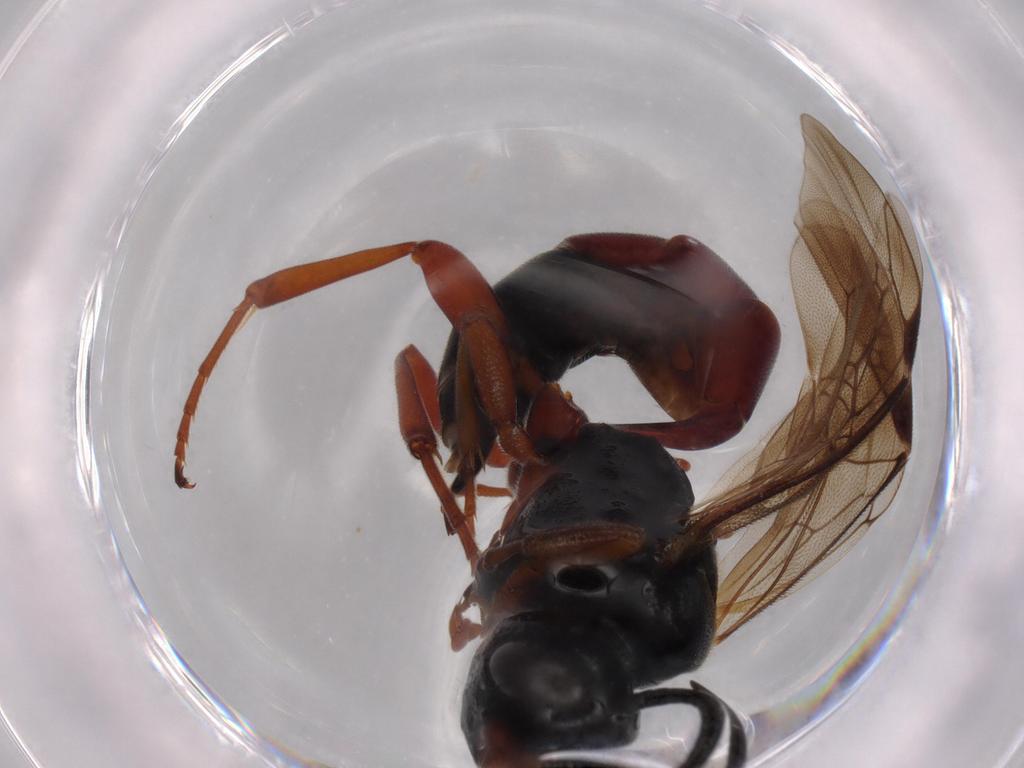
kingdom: Animalia
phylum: Arthropoda
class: Insecta
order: Hymenoptera
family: Ichneumonidae
